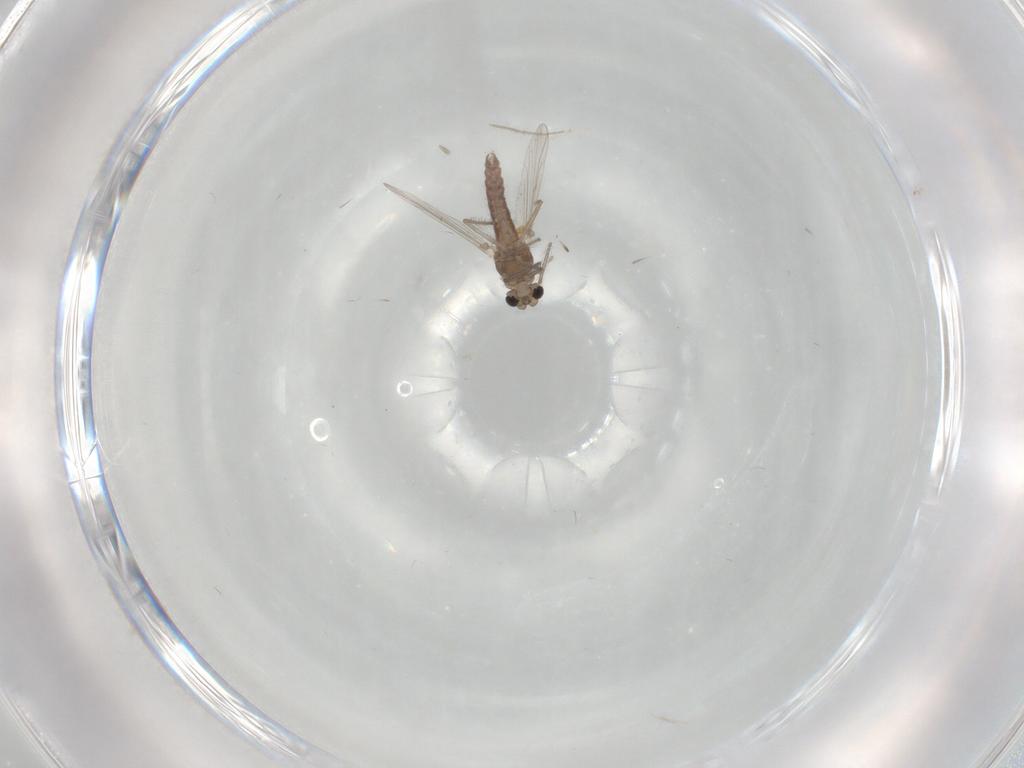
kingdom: Animalia
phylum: Arthropoda
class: Insecta
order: Diptera
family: Chironomidae
